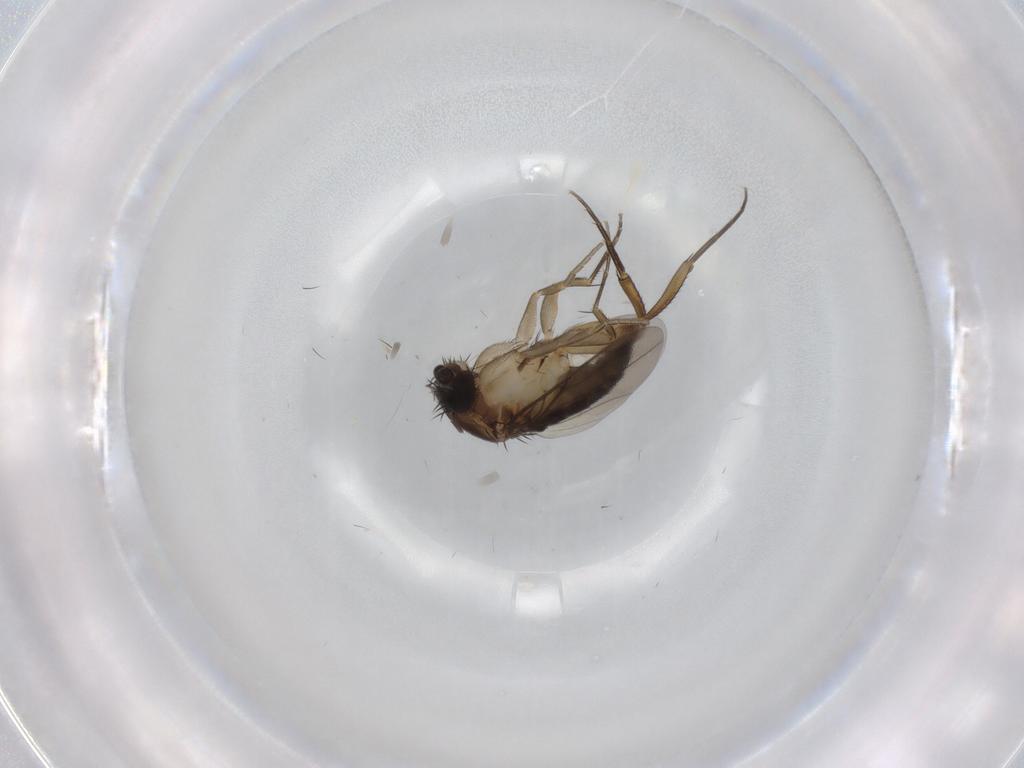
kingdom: Animalia
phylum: Arthropoda
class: Insecta
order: Diptera
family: Phoridae
